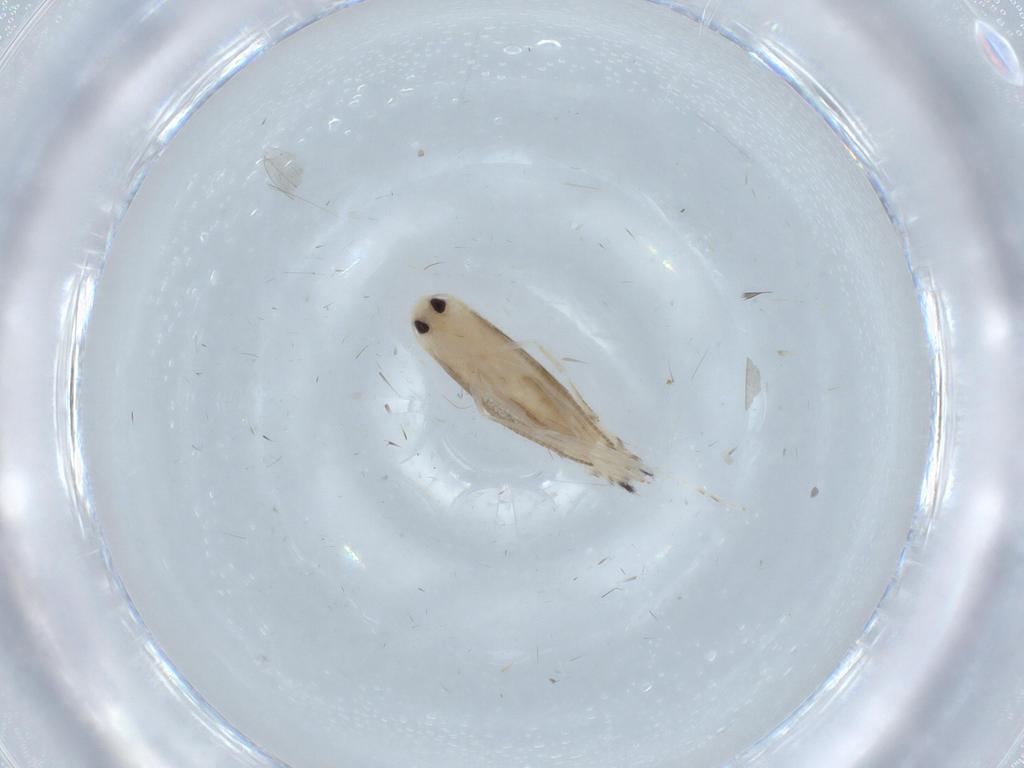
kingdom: Animalia
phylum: Arthropoda
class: Insecta
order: Lepidoptera
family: Gracillariidae
